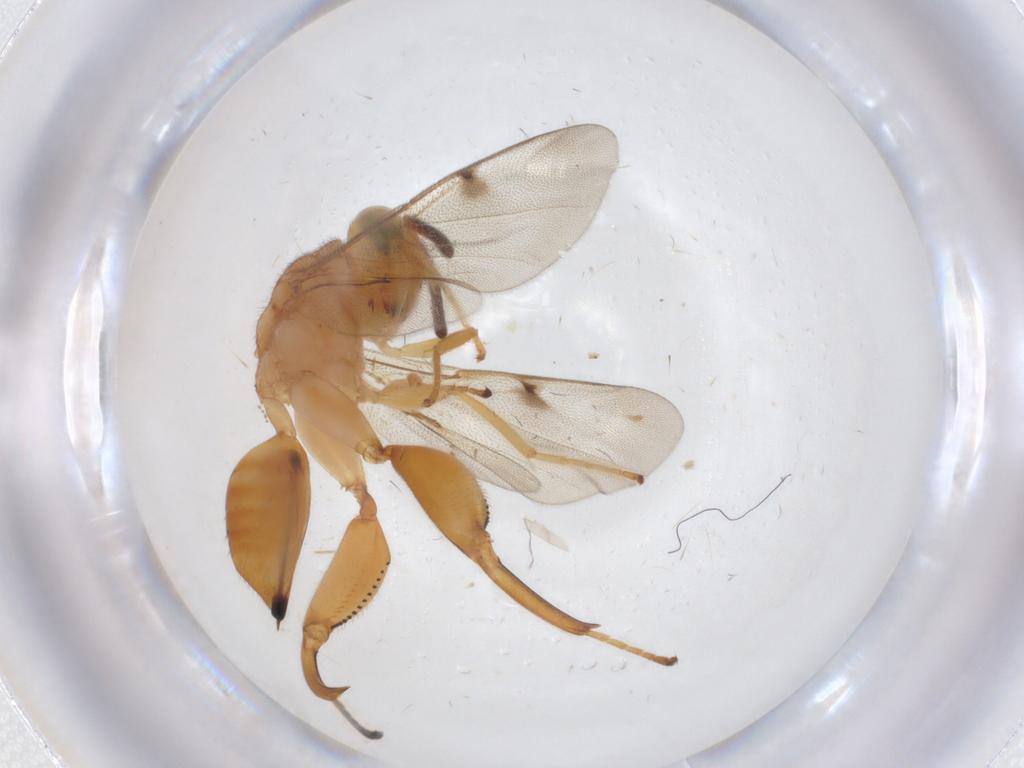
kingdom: Animalia
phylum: Arthropoda
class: Insecta
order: Hymenoptera
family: Chalcididae
